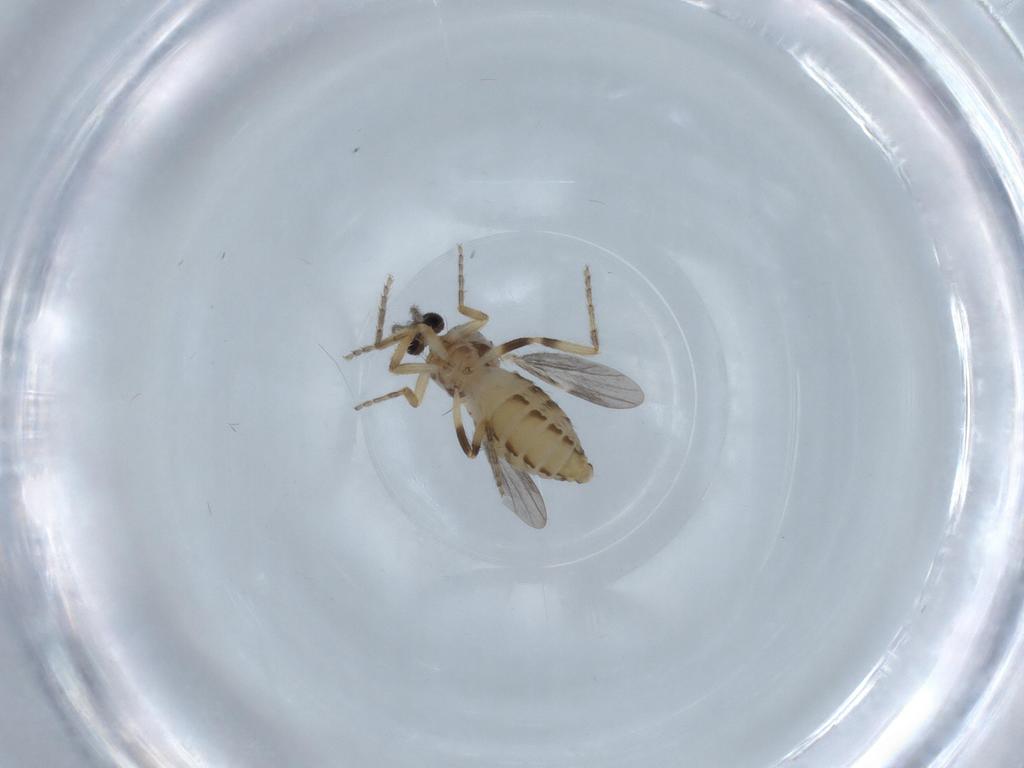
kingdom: Animalia
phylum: Arthropoda
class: Insecta
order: Diptera
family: Ceratopogonidae
